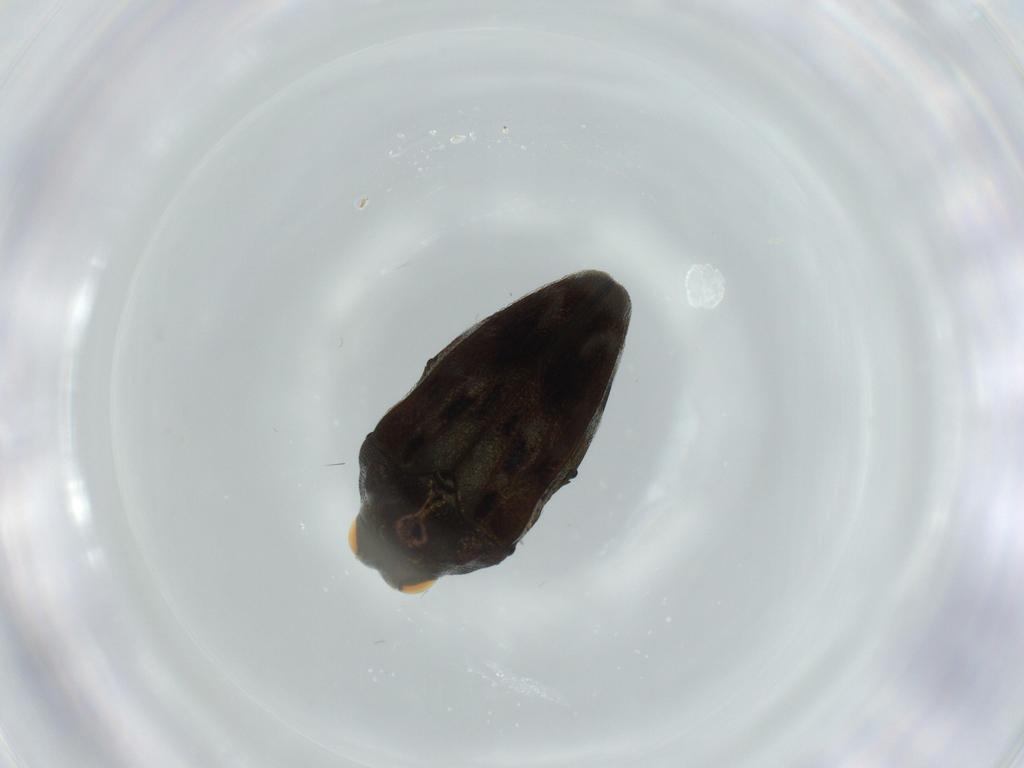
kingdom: Animalia
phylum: Arthropoda
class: Insecta
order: Coleoptera
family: Buprestidae
